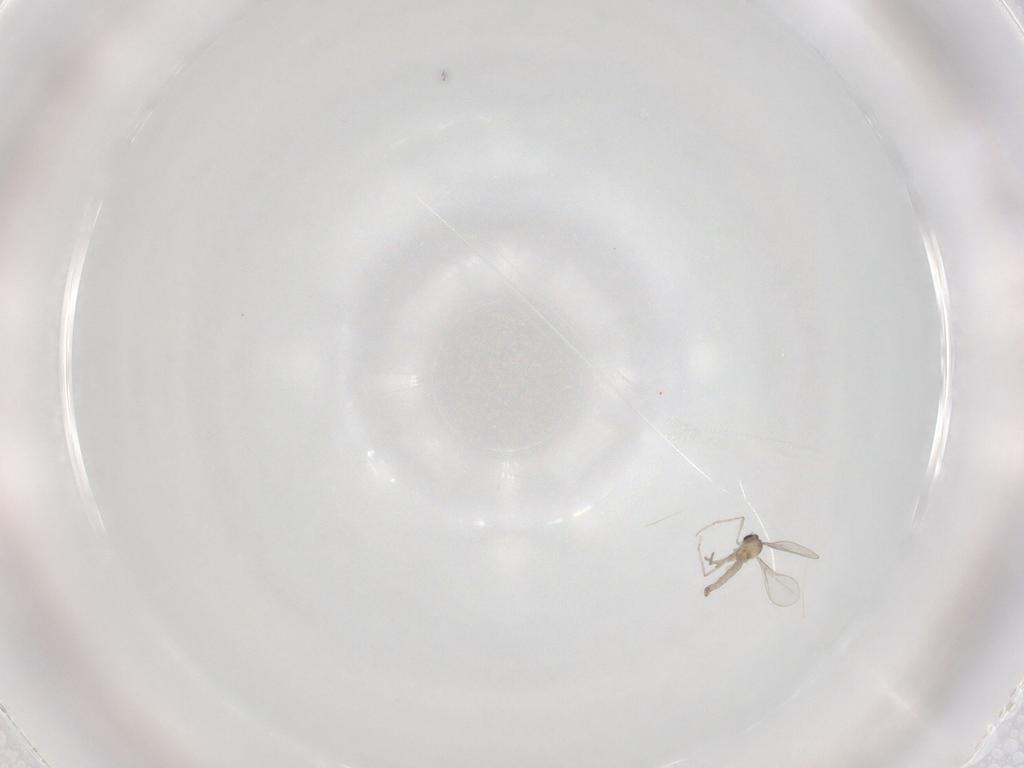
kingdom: Animalia
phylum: Arthropoda
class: Insecta
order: Diptera
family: Cecidomyiidae
